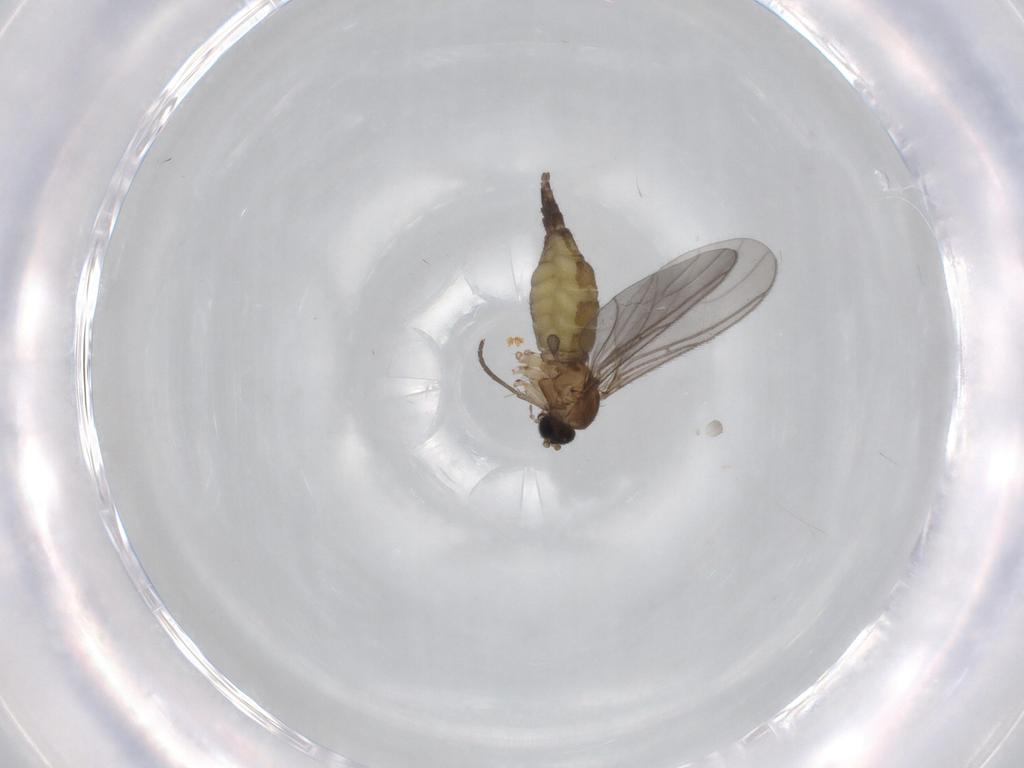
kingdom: Animalia
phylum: Arthropoda
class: Insecta
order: Diptera
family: Sciaridae
